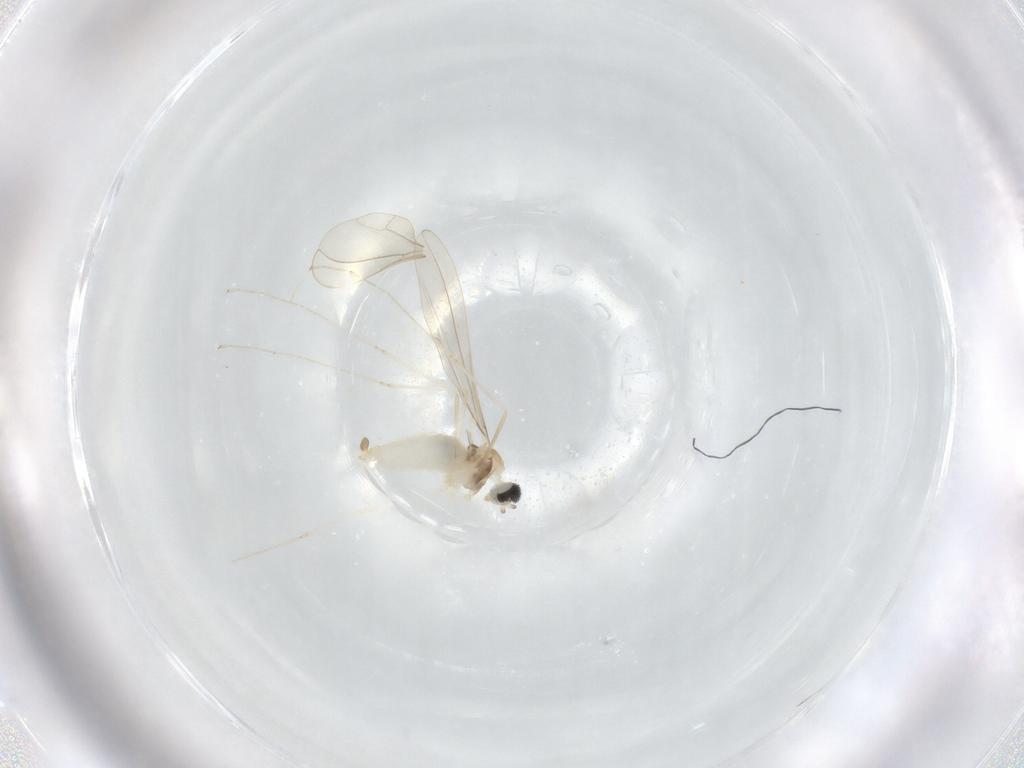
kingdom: Animalia
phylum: Arthropoda
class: Insecta
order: Diptera
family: Cecidomyiidae
